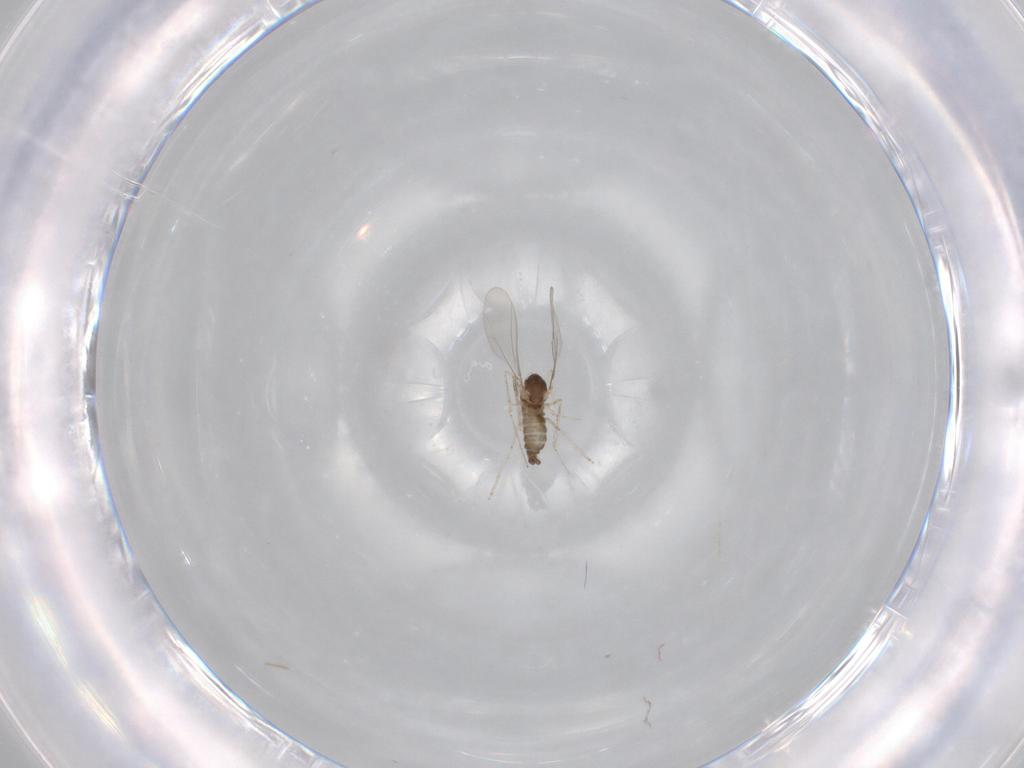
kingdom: Animalia
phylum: Arthropoda
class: Insecta
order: Diptera
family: Cecidomyiidae
